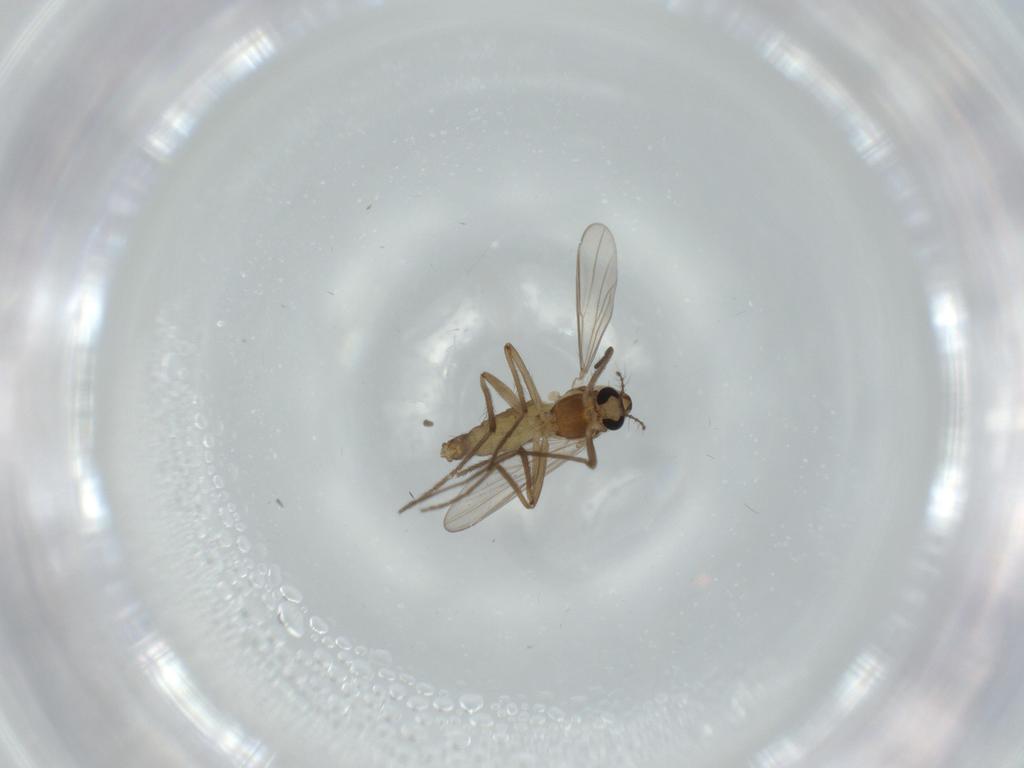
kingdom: Animalia
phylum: Arthropoda
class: Insecta
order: Diptera
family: Chironomidae
